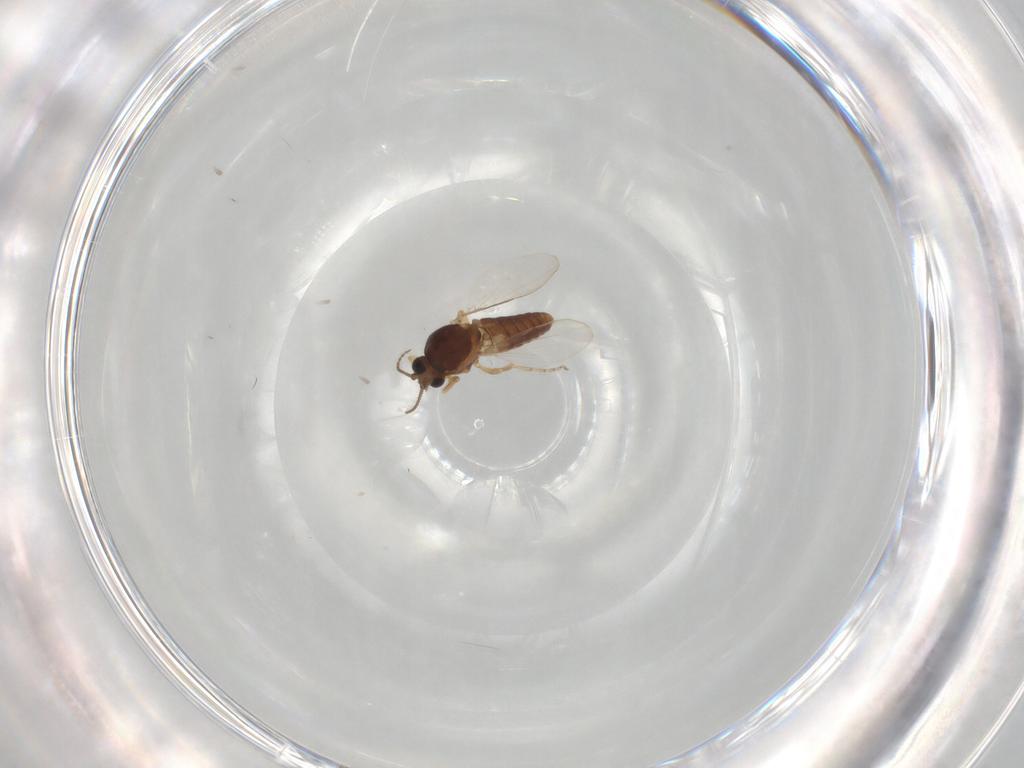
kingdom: Animalia
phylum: Arthropoda
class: Insecta
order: Diptera
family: Ceratopogonidae
